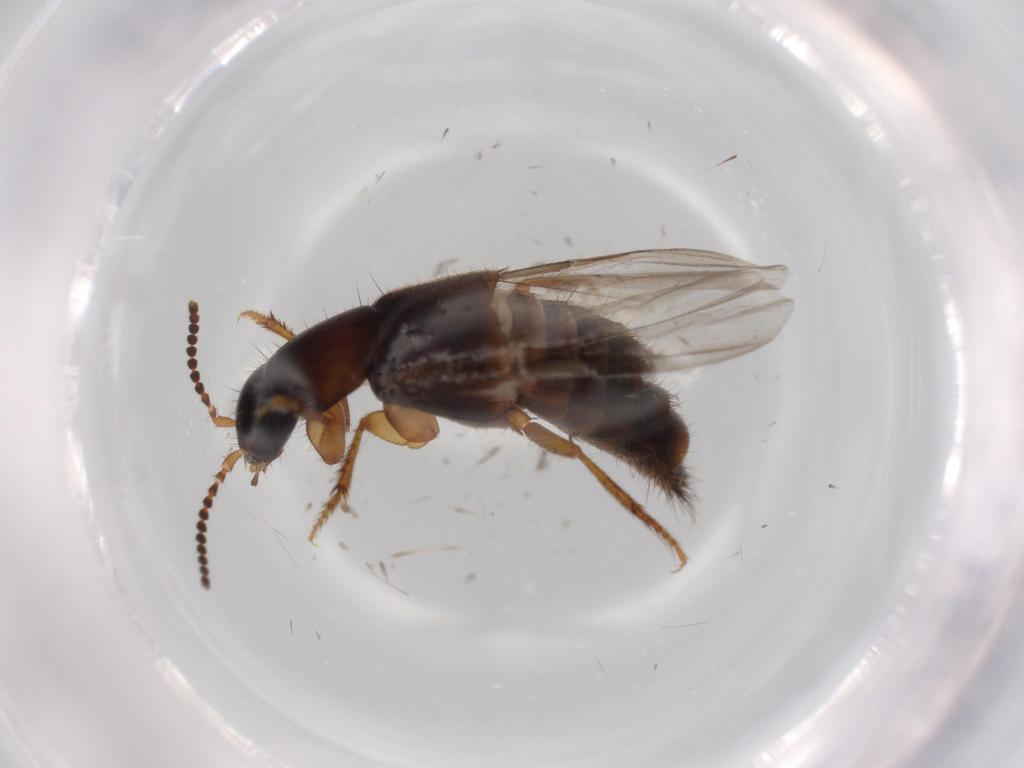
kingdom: Animalia
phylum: Arthropoda
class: Insecta
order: Coleoptera
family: Staphylinidae
